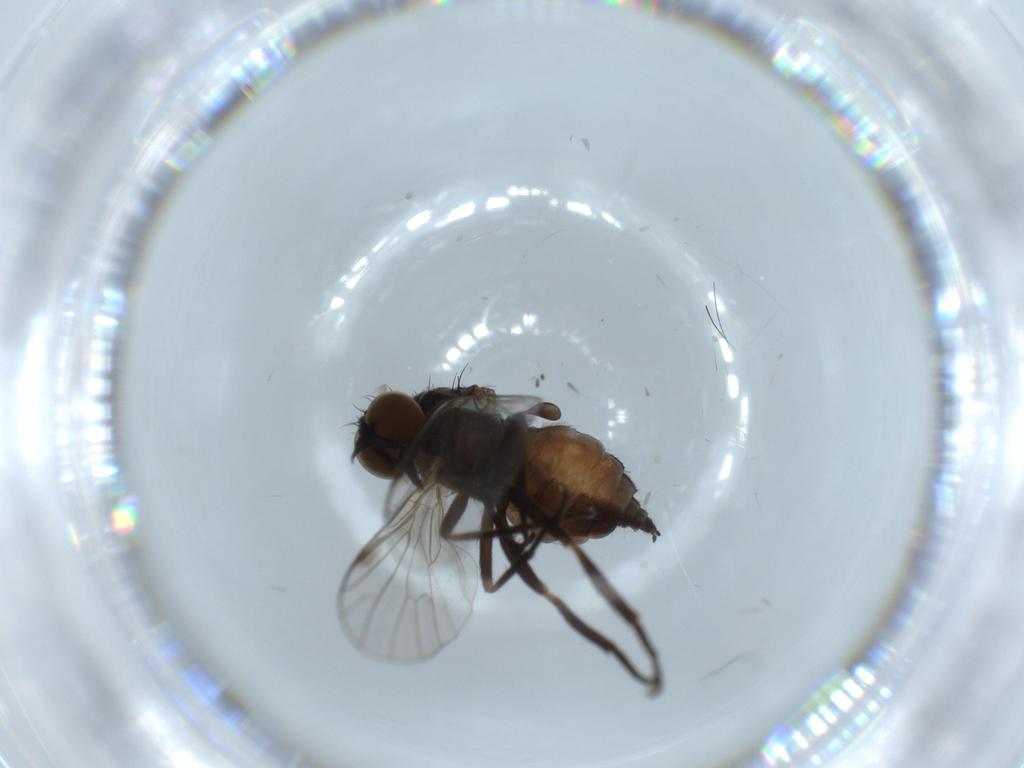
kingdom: Animalia
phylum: Arthropoda
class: Insecta
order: Diptera
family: Empididae
